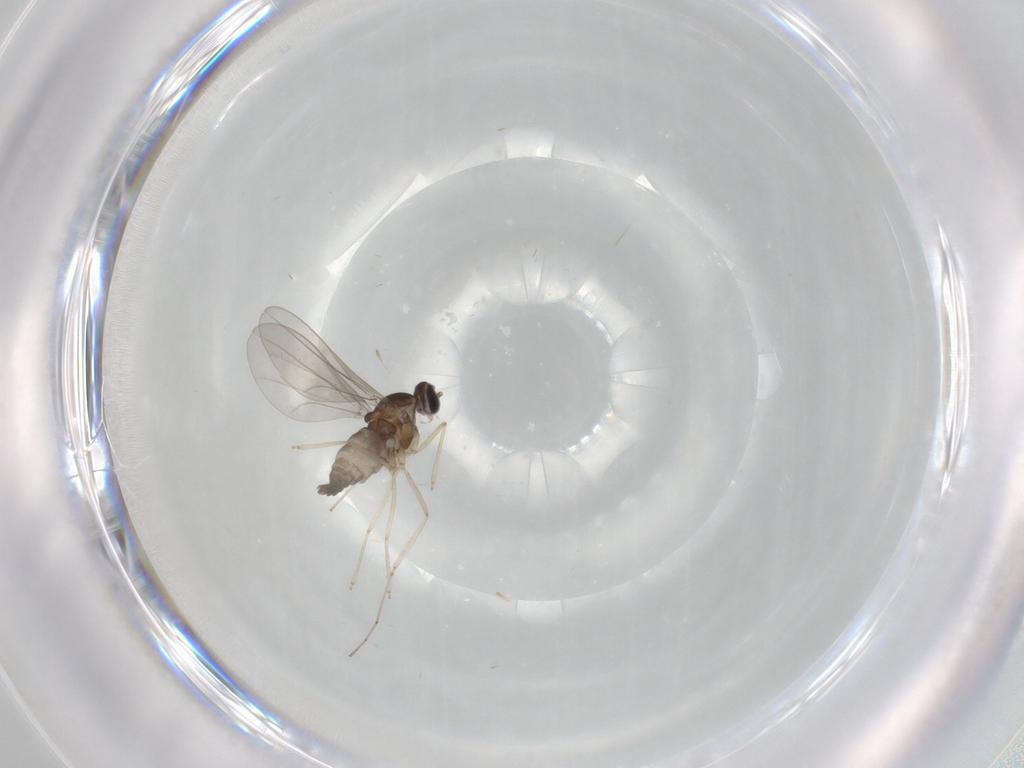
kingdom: Animalia
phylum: Arthropoda
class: Insecta
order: Diptera
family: Cecidomyiidae
